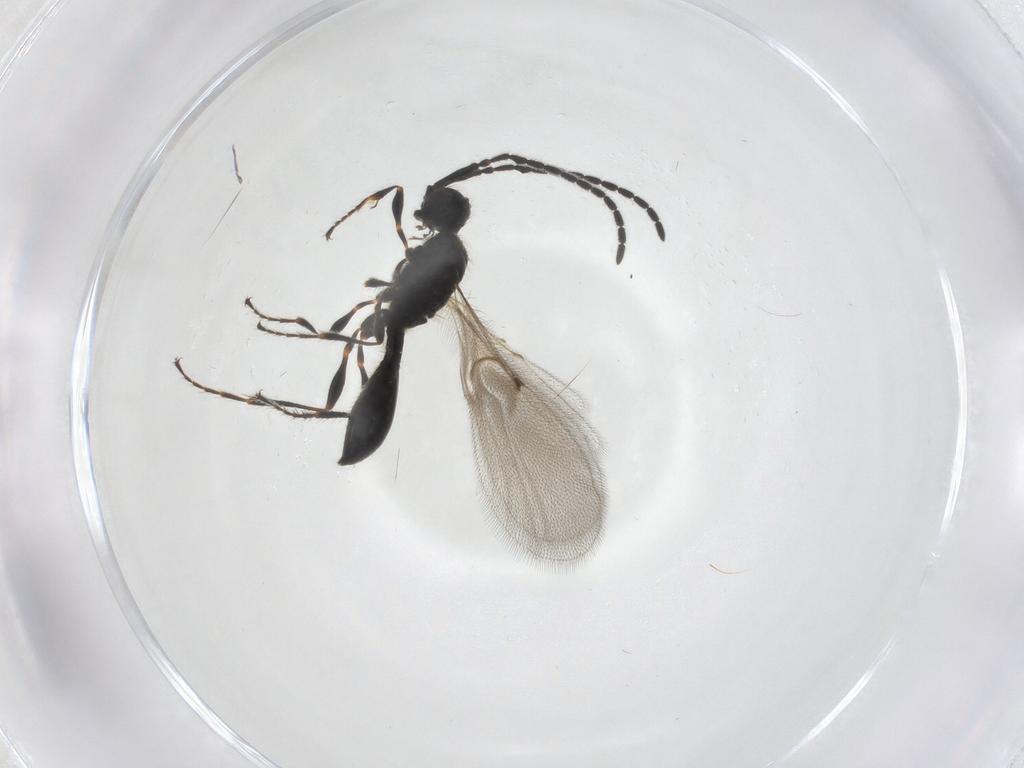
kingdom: Animalia
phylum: Arthropoda
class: Insecta
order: Hymenoptera
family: Diapriidae
